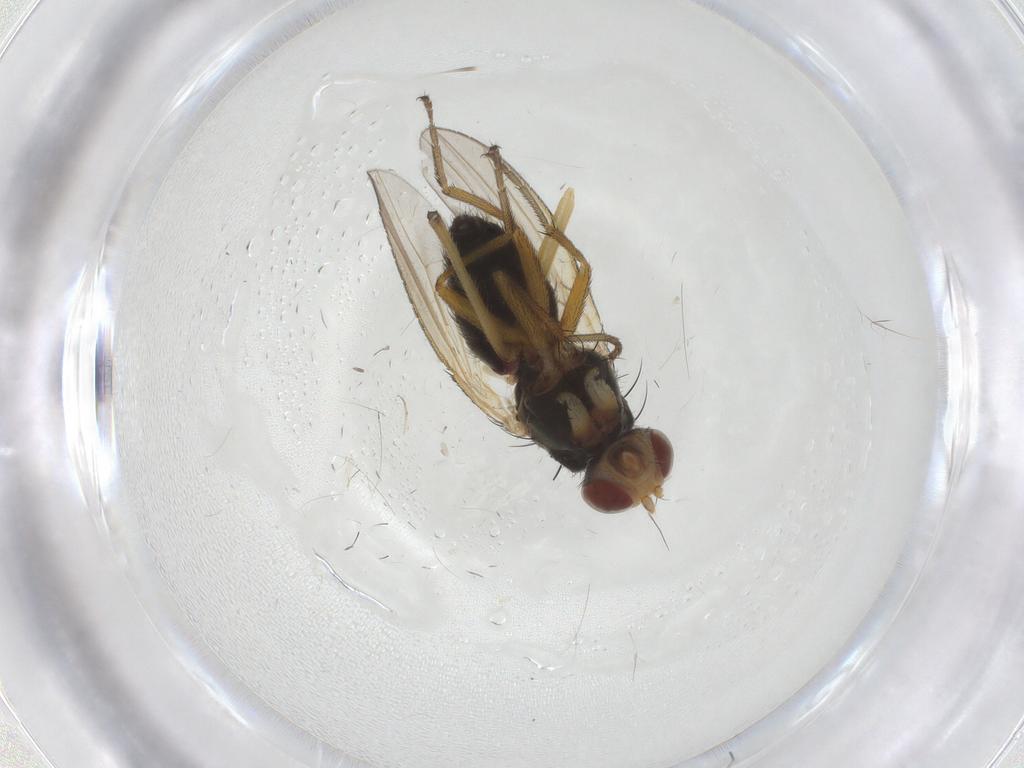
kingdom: Animalia
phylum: Arthropoda
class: Insecta
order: Diptera
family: Heleomyzidae
